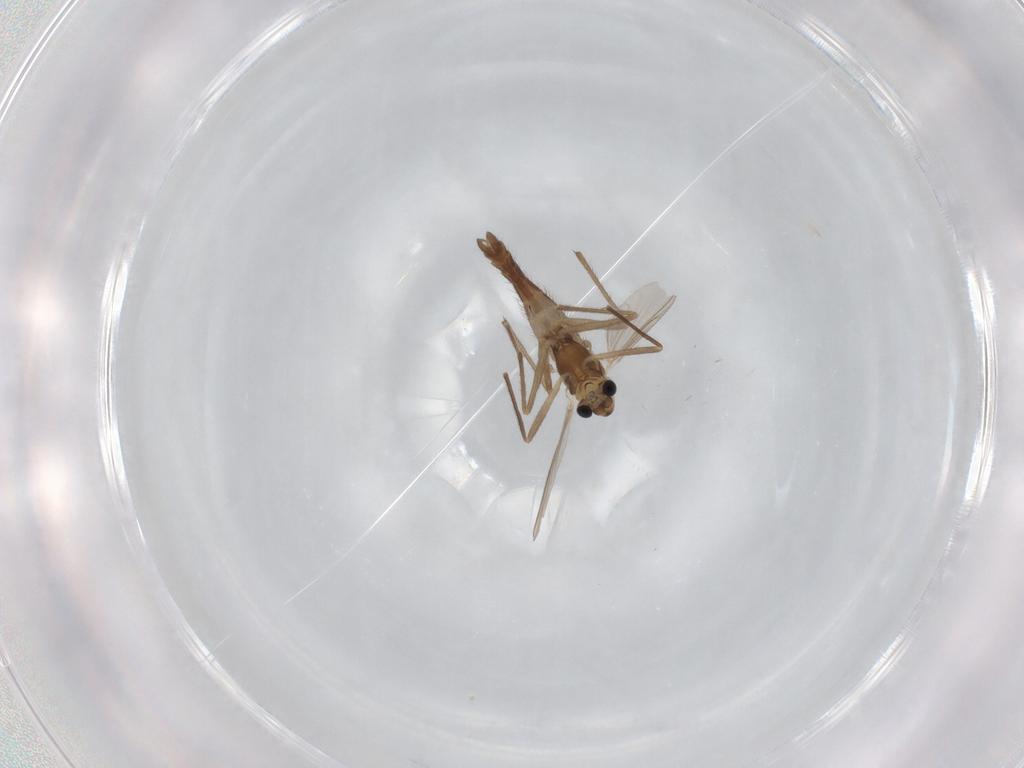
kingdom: Animalia
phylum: Arthropoda
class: Insecta
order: Diptera
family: Chironomidae
